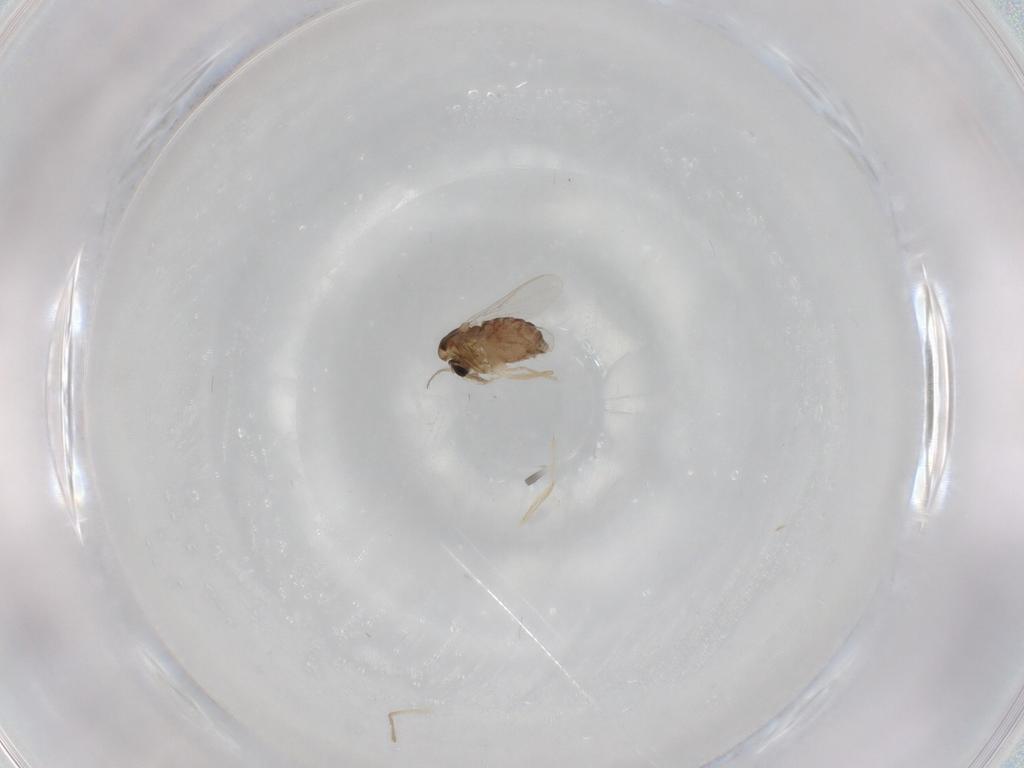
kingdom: Animalia
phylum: Arthropoda
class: Insecta
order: Diptera
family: Chironomidae
